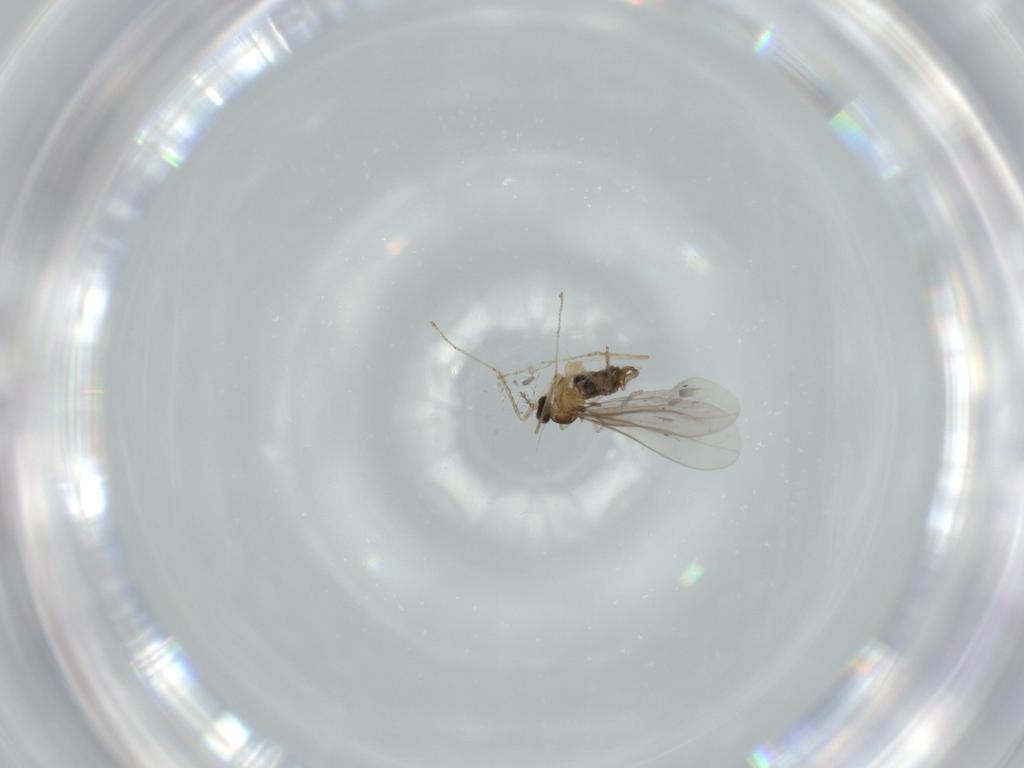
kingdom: Animalia
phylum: Arthropoda
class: Insecta
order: Diptera
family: Cecidomyiidae
